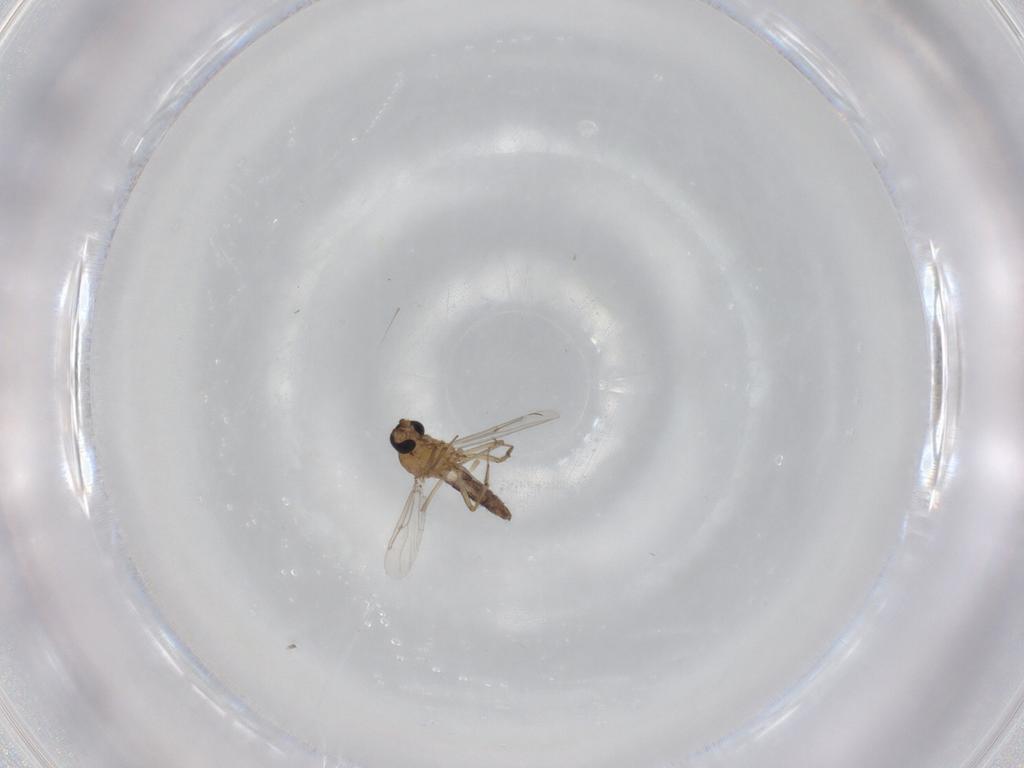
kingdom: Animalia
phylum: Arthropoda
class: Insecta
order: Diptera
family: Ceratopogonidae
